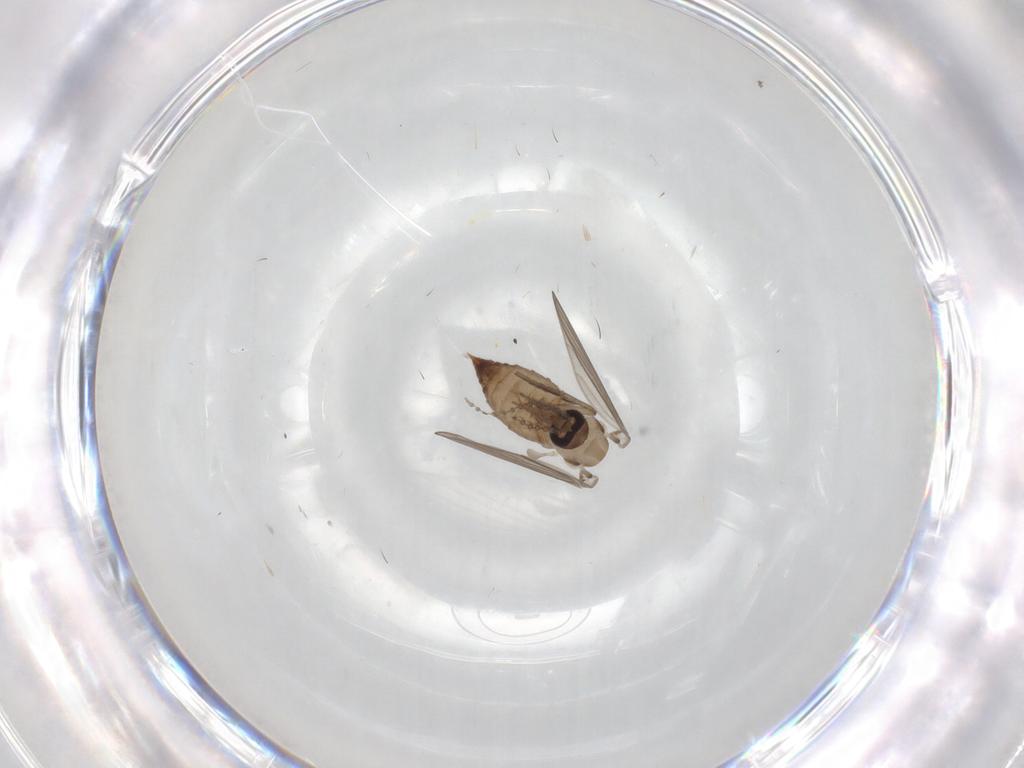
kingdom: Animalia
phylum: Arthropoda
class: Insecta
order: Diptera
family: Psychodidae
